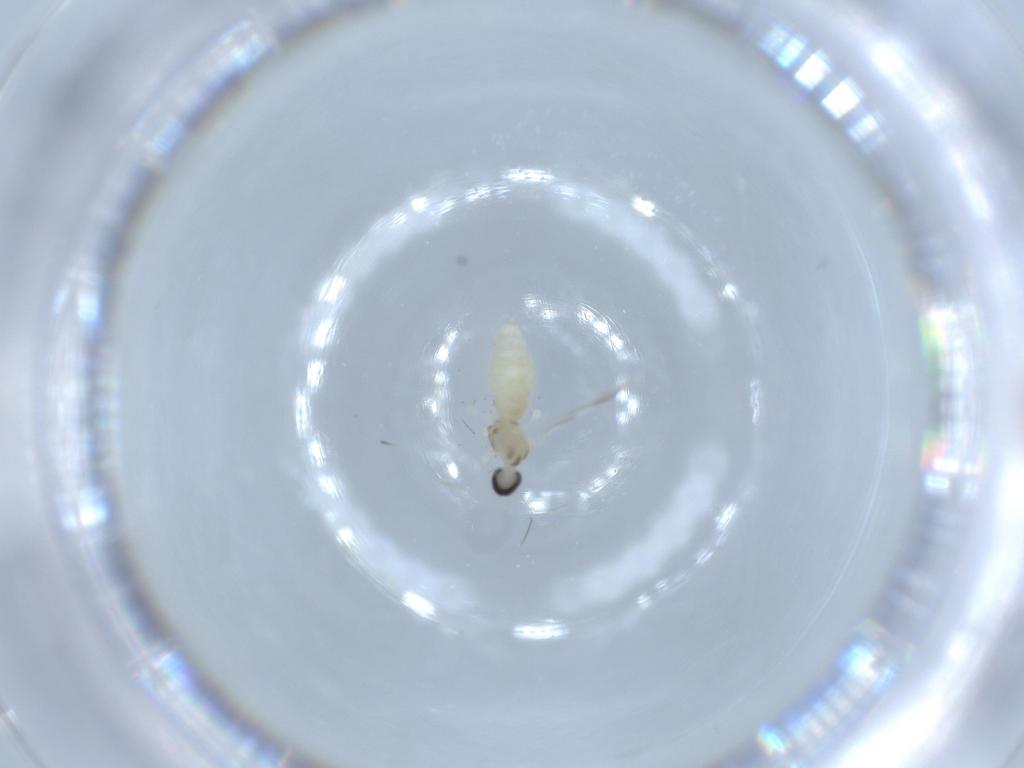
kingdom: Animalia
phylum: Arthropoda
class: Insecta
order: Diptera
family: Cecidomyiidae
